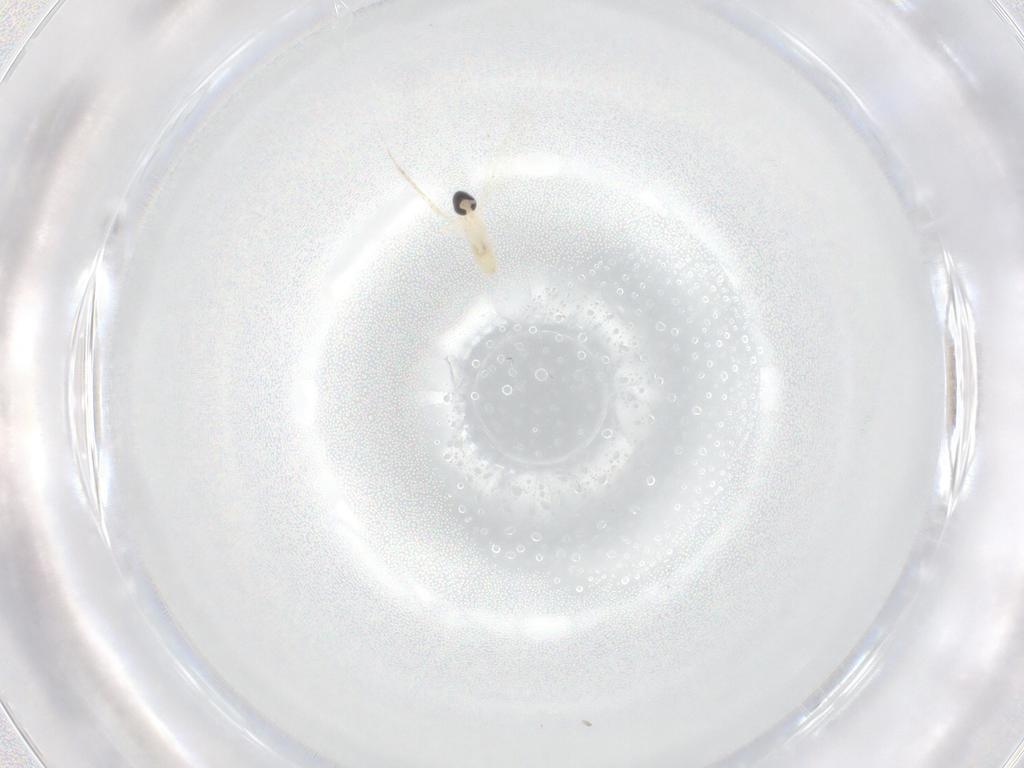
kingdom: Animalia
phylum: Arthropoda
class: Insecta
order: Diptera
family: Cecidomyiidae
